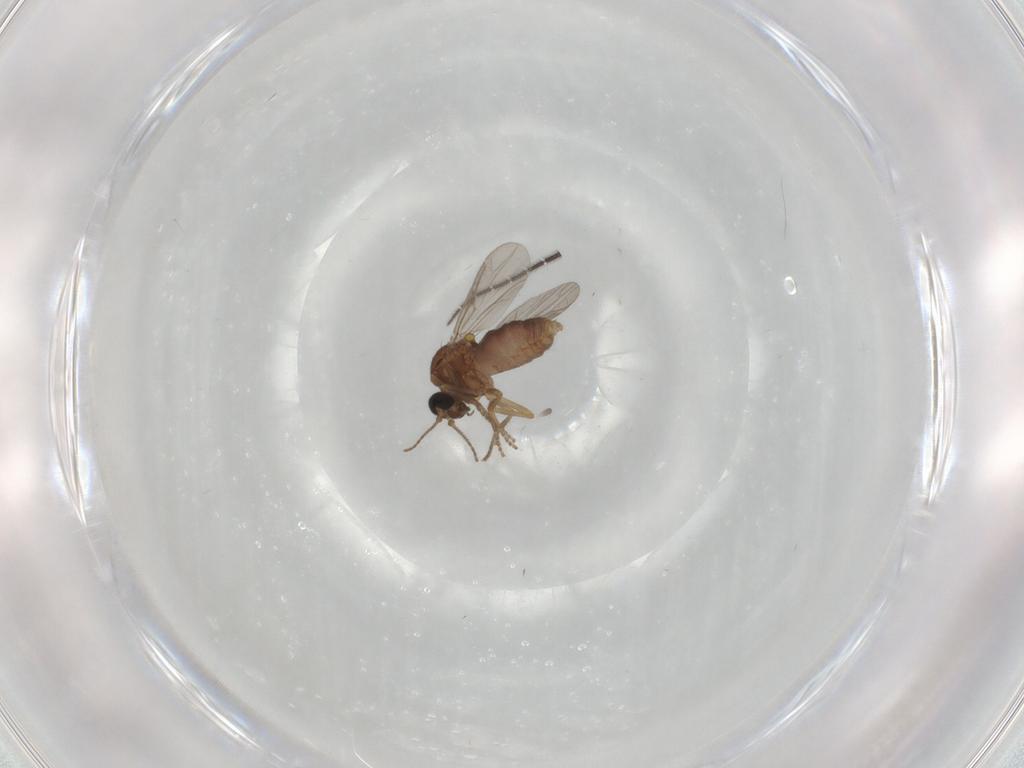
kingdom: Animalia
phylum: Arthropoda
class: Insecta
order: Diptera
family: Ceratopogonidae
